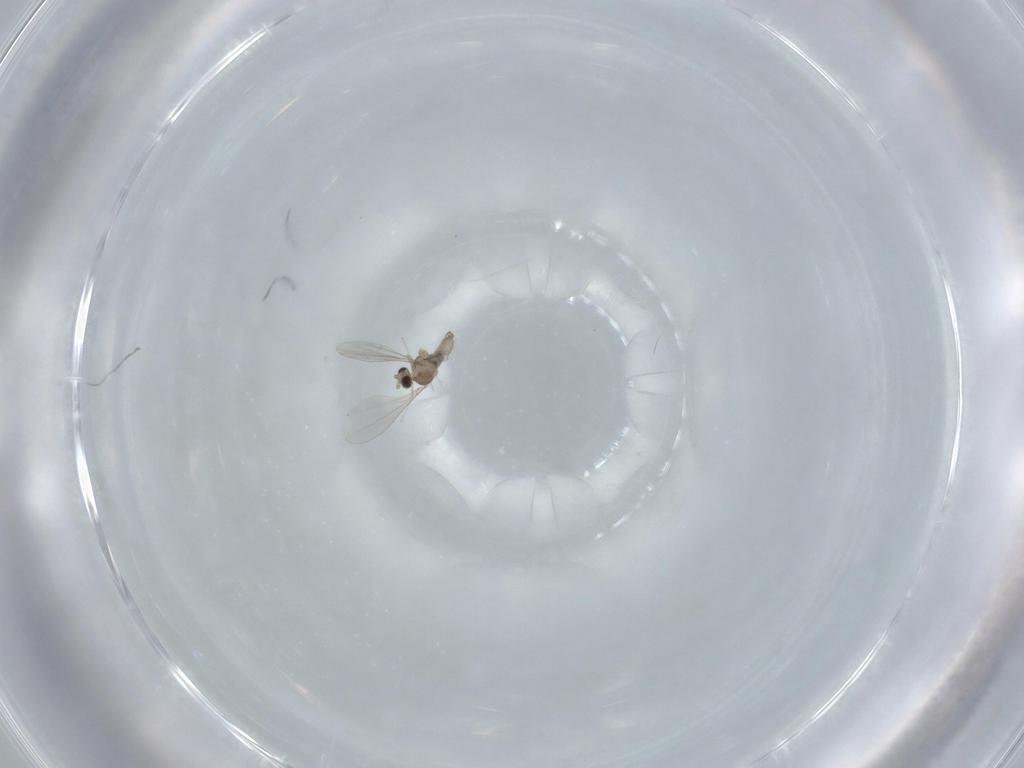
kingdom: Animalia
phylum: Arthropoda
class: Insecta
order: Diptera
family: Cecidomyiidae
